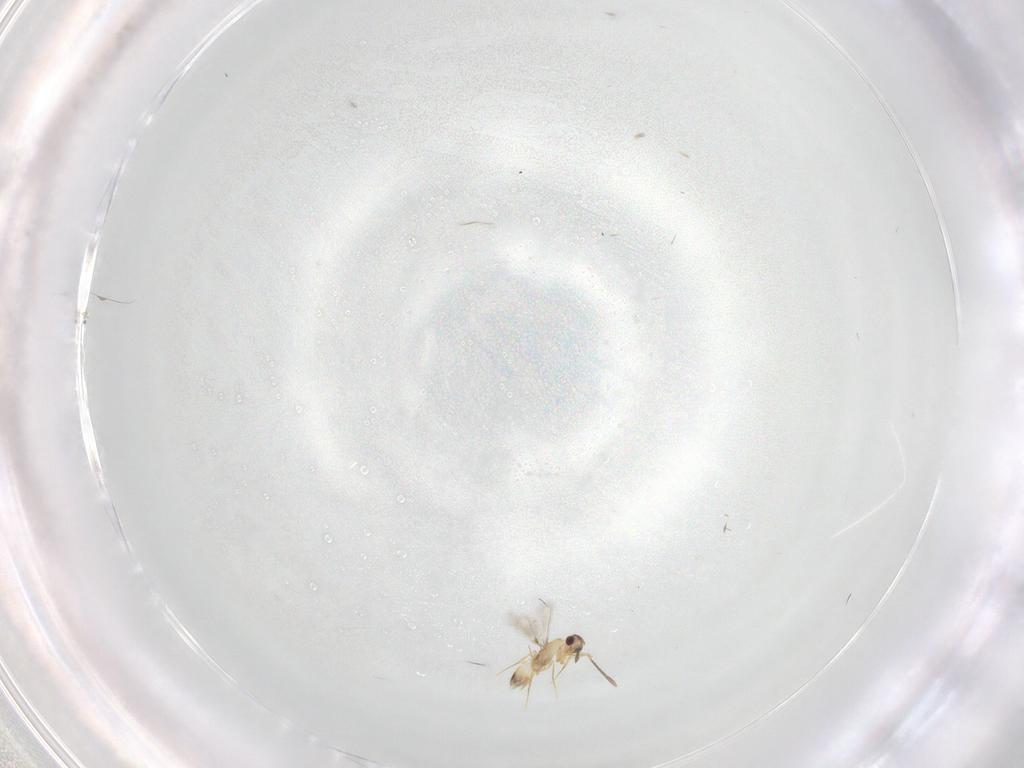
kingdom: Animalia
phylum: Arthropoda
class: Insecta
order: Hymenoptera
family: Mymaridae
